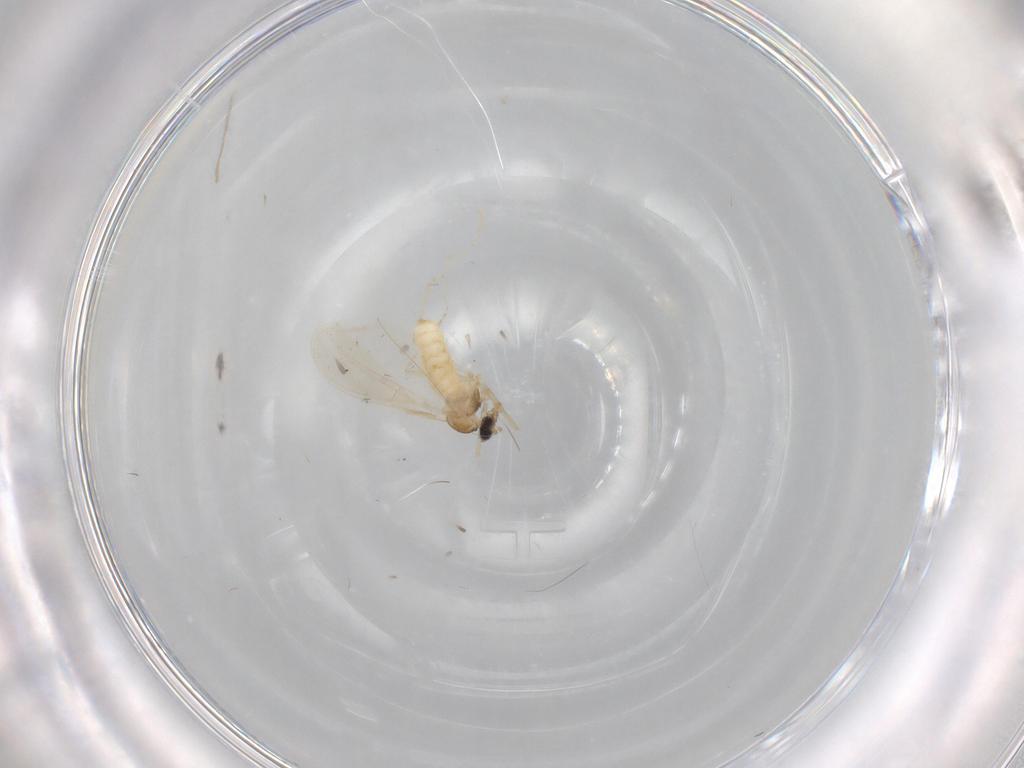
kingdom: Animalia
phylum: Arthropoda
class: Insecta
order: Diptera
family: Cecidomyiidae
